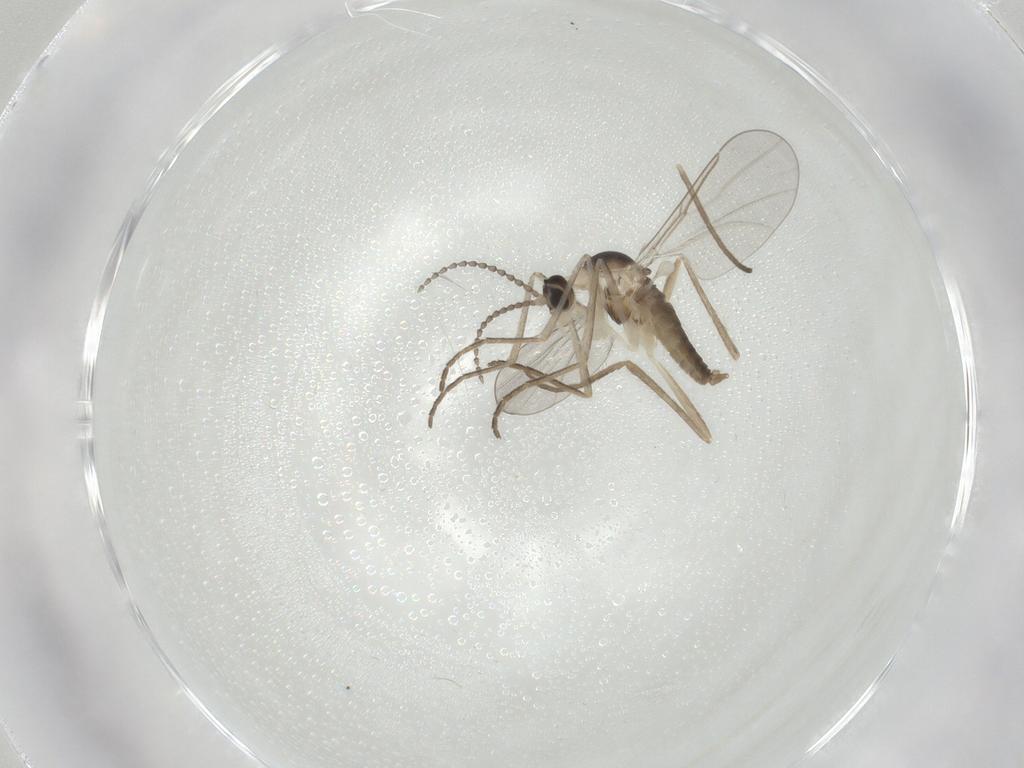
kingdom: Animalia
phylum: Arthropoda
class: Insecta
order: Diptera
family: Cecidomyiidae
